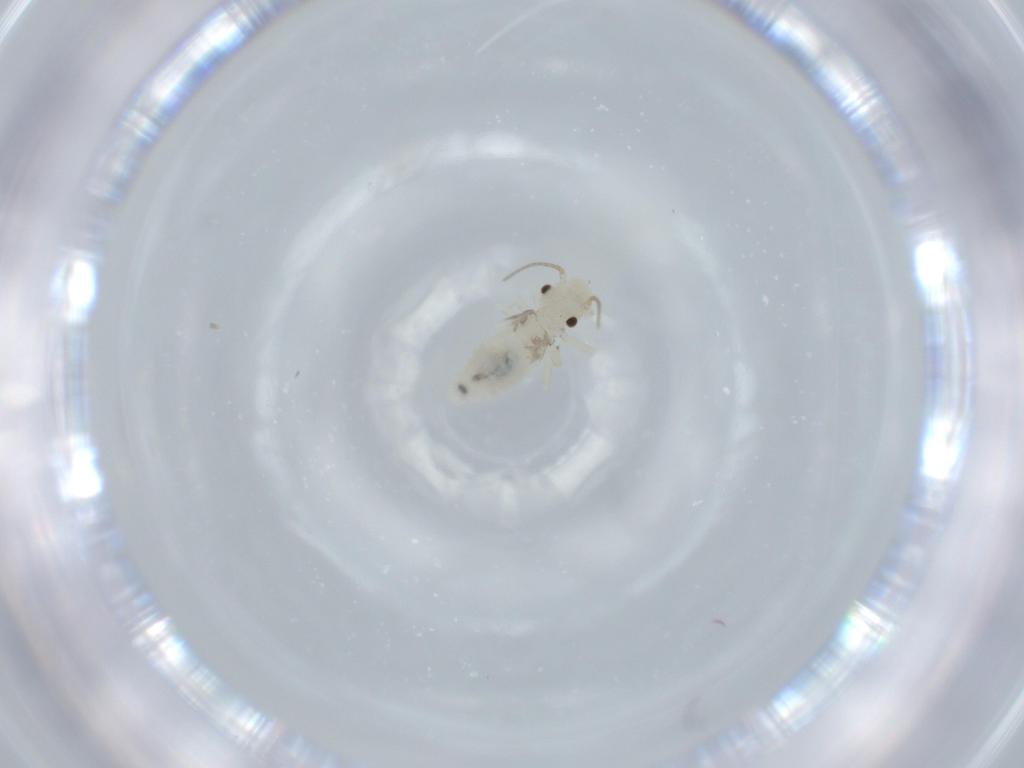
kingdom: Animalia
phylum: Arthropoda
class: Insecta
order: Psocodea
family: Caeciliusidae
